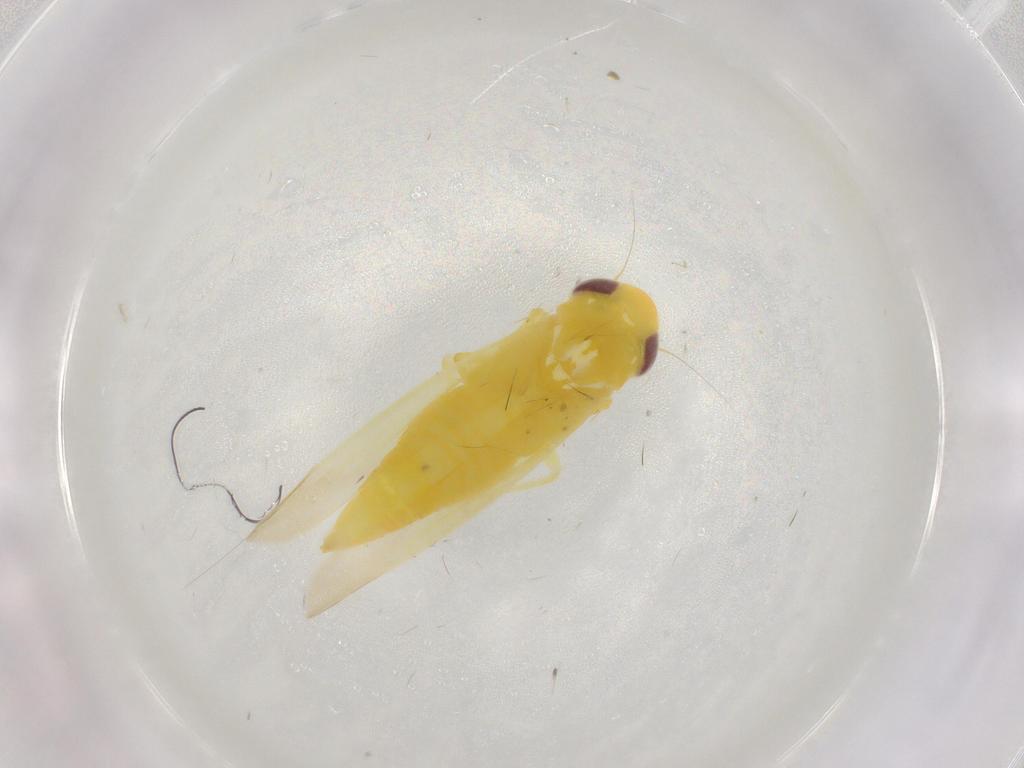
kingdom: Animalia
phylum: Arthropoda
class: Insecta
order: Hemiptera
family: Cicadellidae
